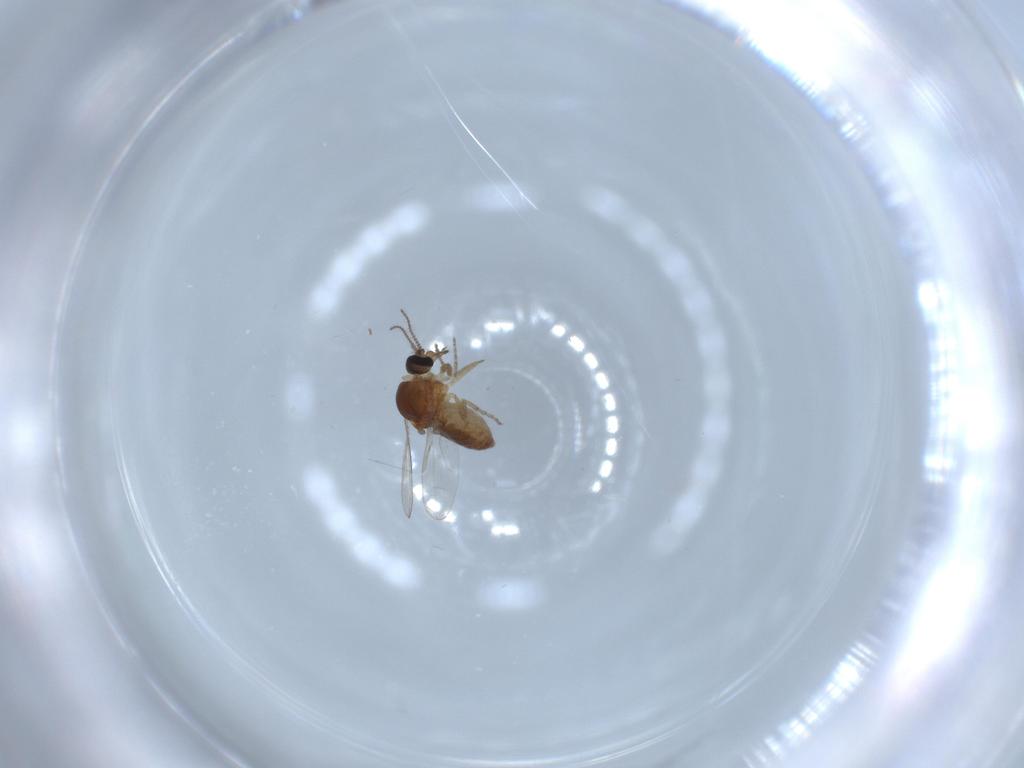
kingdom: Animalia
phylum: Arthropoda
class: Insecta
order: Diptera
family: Ceratopogonidae
